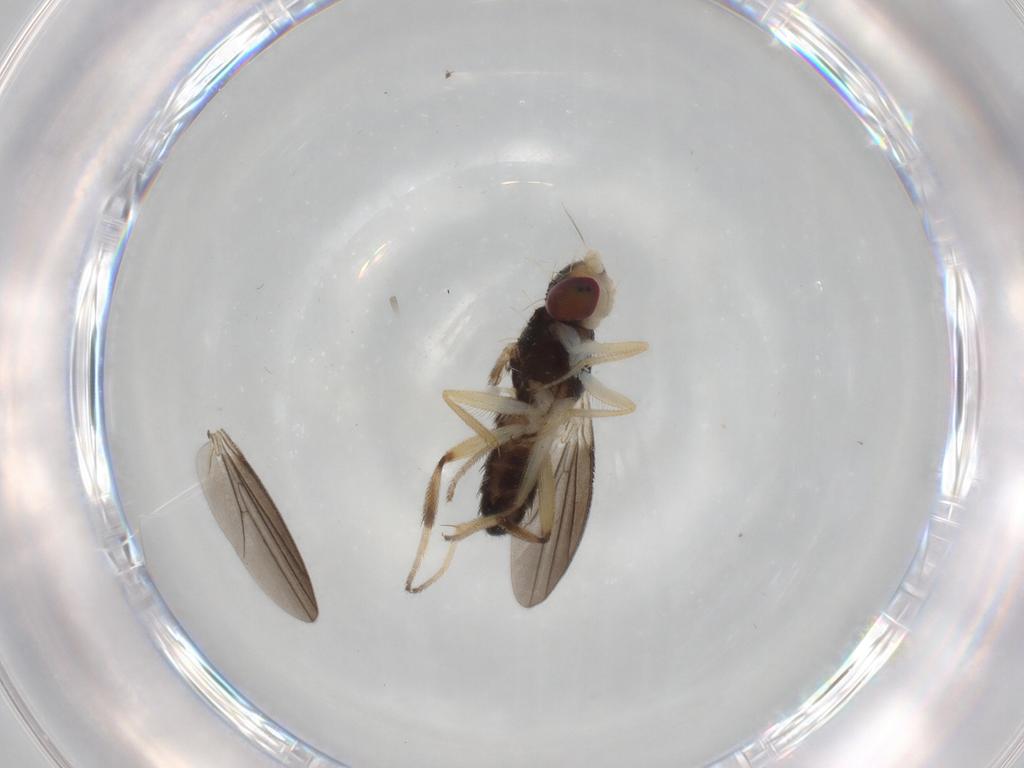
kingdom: Animalia
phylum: Arthropoda
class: Insecta
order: Diptera
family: Clusiidae
